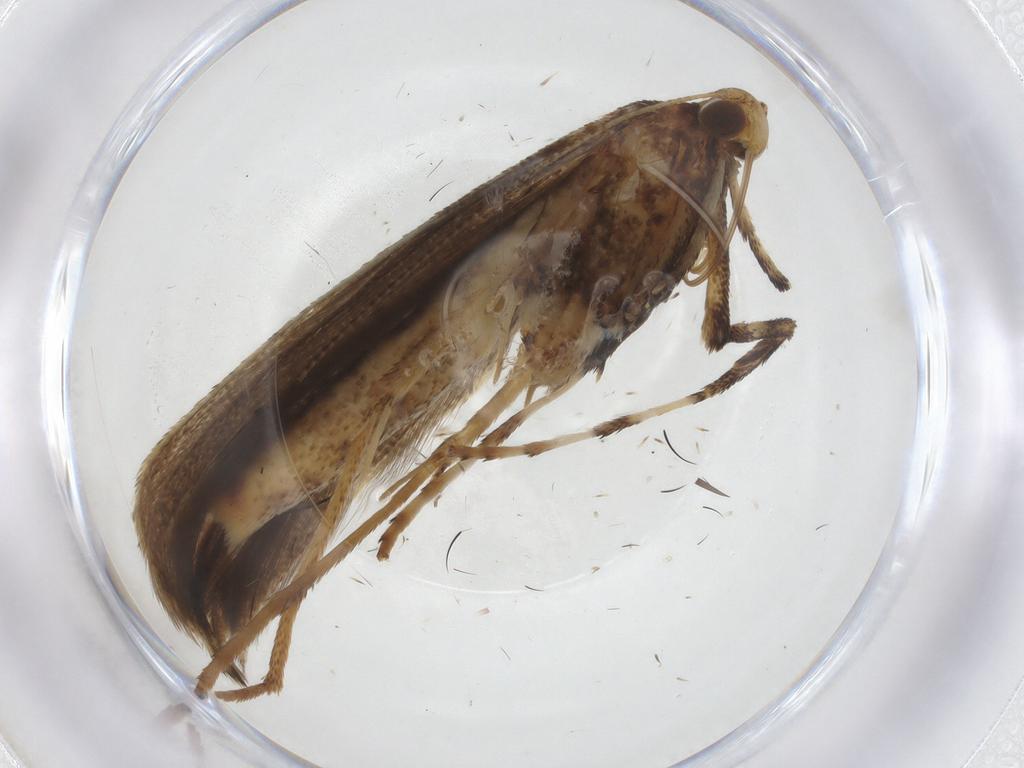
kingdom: Animalia
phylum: Arthropoda
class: Insecta
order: Lepidoptera
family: Gracillariidae
